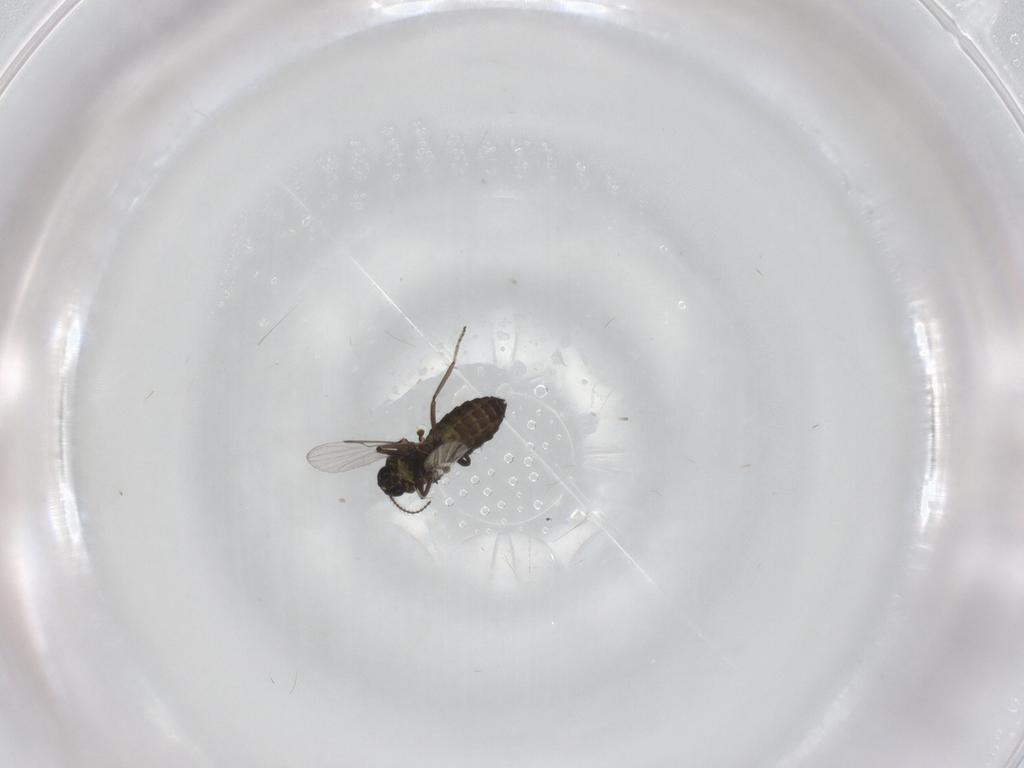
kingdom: Animalia
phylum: Arthropoda
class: Insecta
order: Diptera
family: Ceratopogonidae
